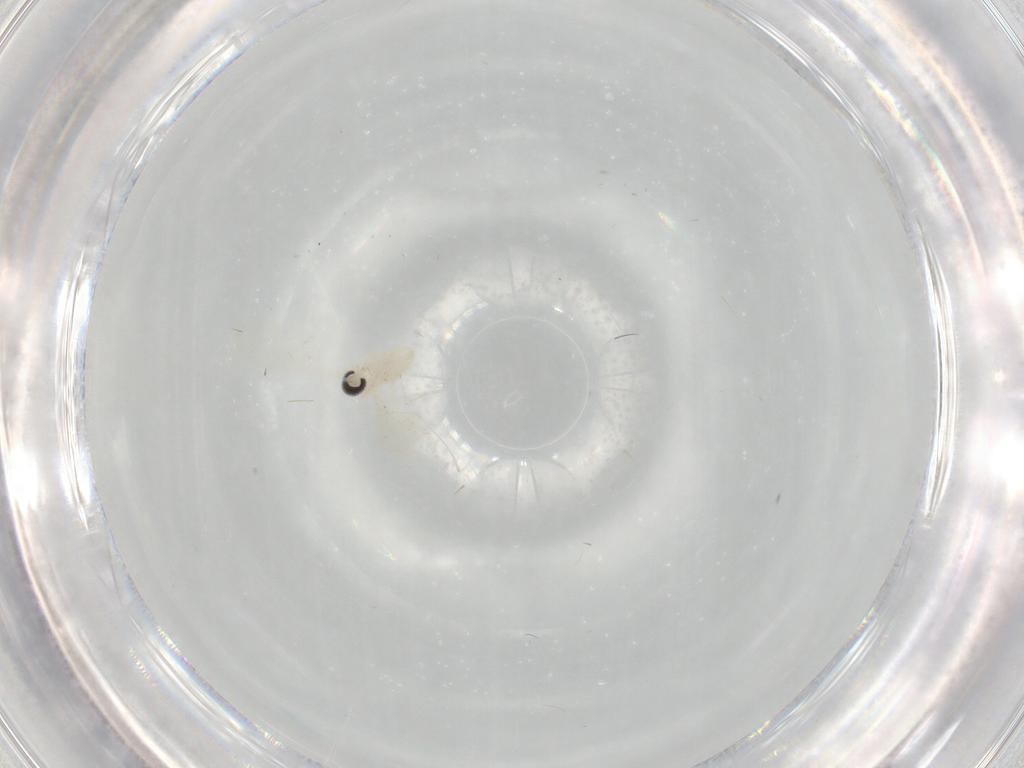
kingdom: Animalia
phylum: Arthropoda
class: Insecta
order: Diptera
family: Cecidomyiidae
